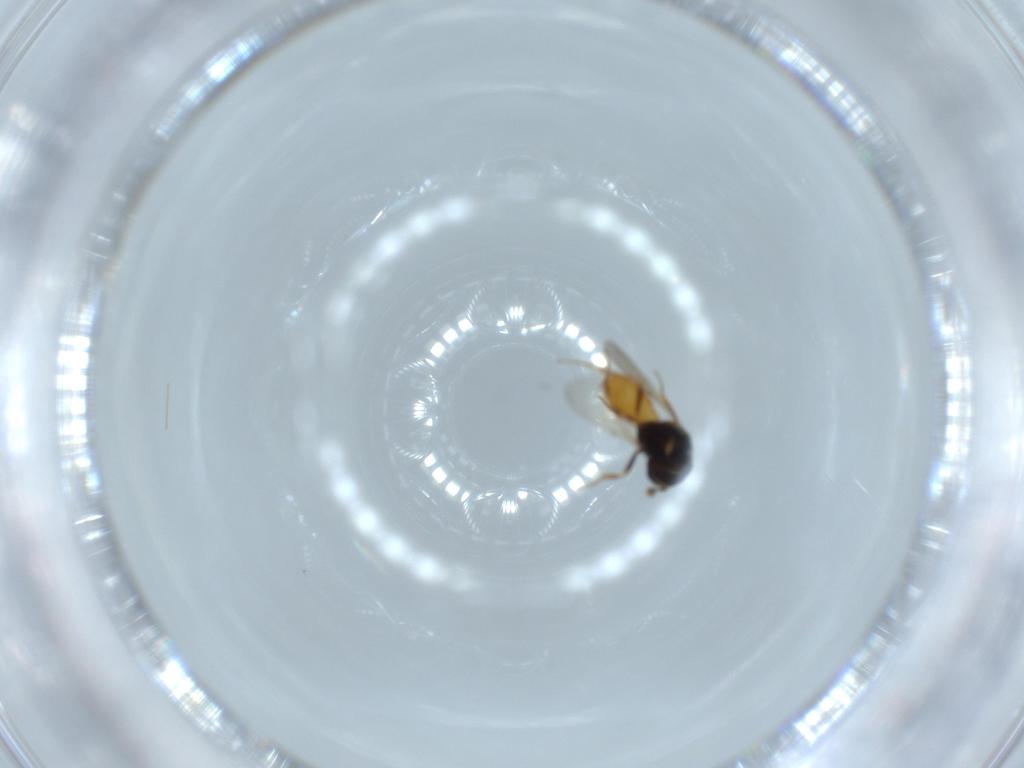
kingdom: Animalia
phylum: Arthropoda
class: Insecta
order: Hymenoptera
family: Scelionidae
